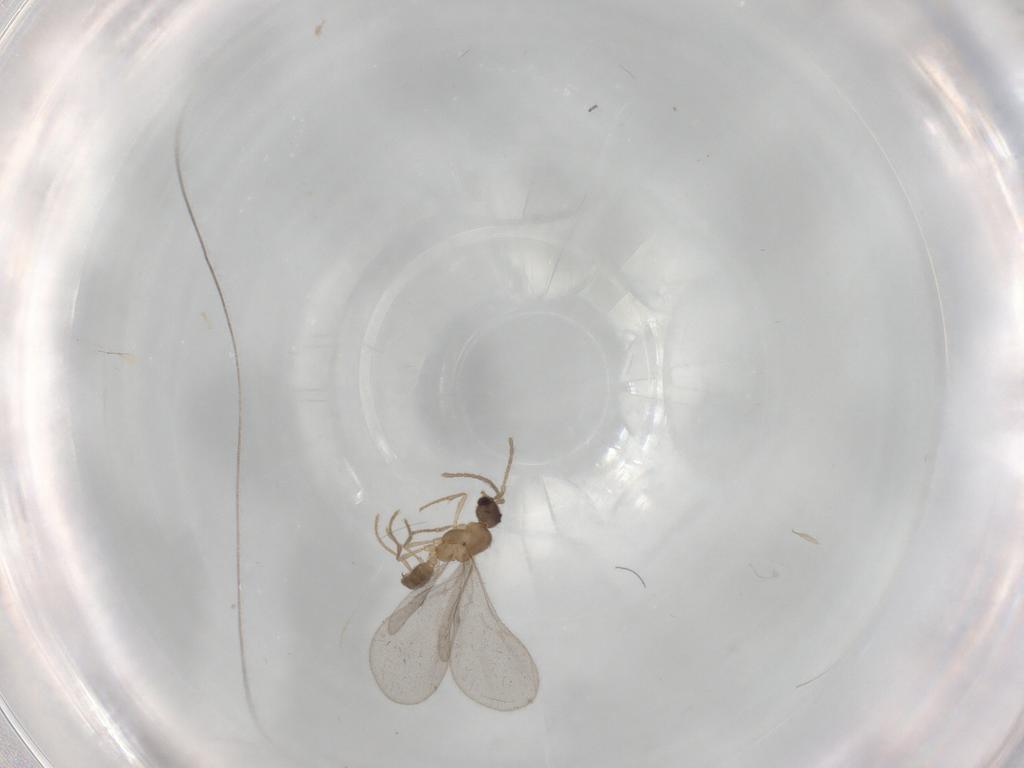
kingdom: Animalia
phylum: Arthropoda
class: Insecta
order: Hymenoptera
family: Formicidae
